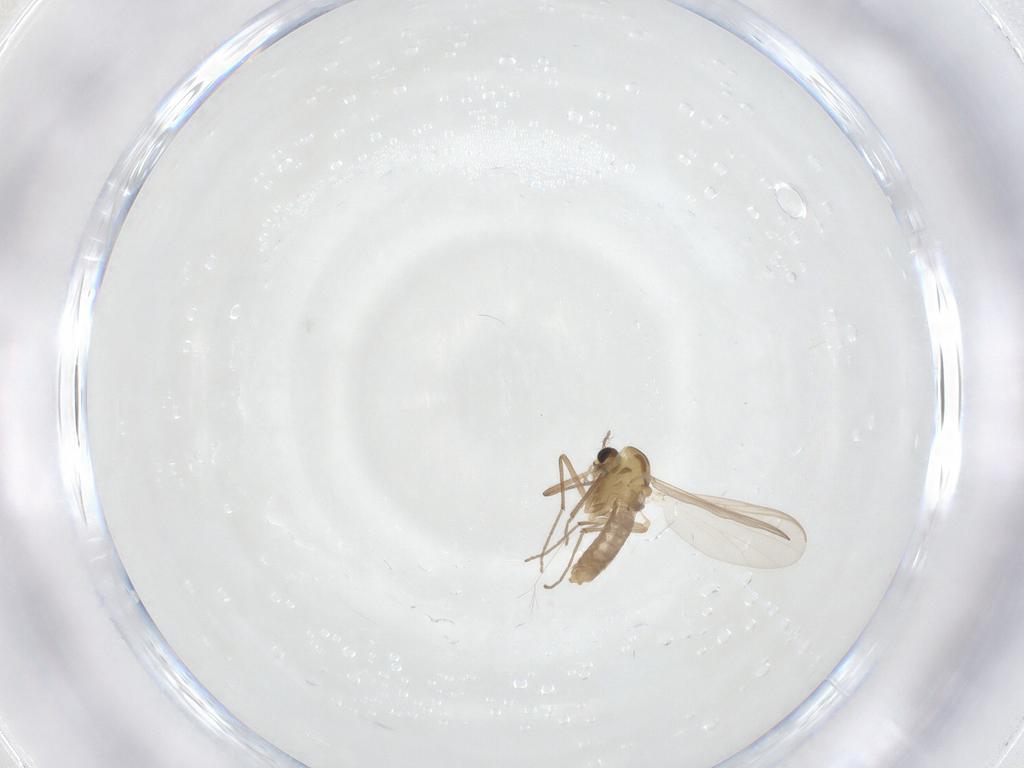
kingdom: Animalia
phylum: Arthropoda
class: Insecta
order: Diptera
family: Chironomidae
